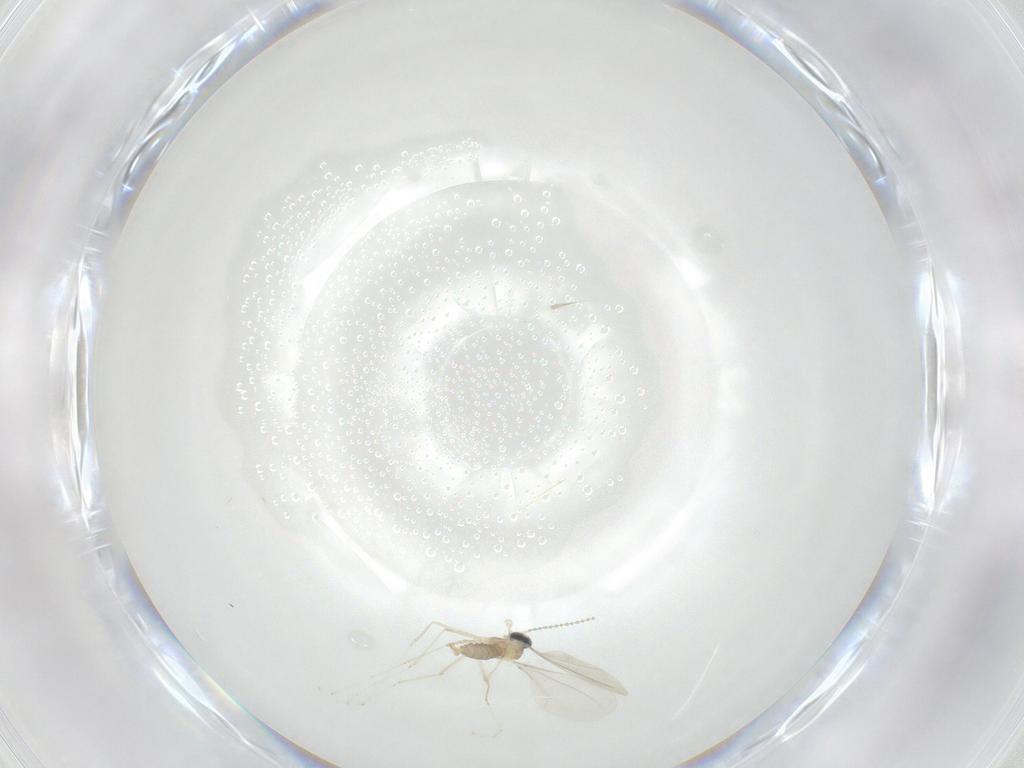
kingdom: Animalia
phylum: Arthropoda
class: Insecta
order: Diptera
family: Cecidomyiidae
